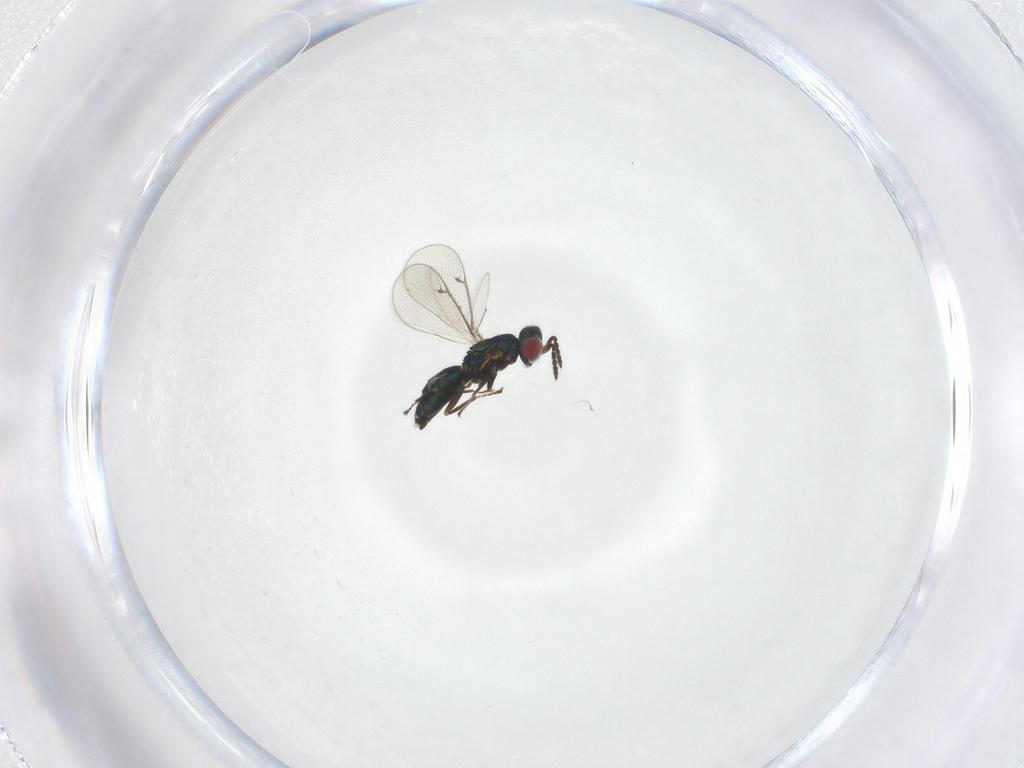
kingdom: Animalia
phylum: Arthropoda
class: Insecta
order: Hymenoptera
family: Eulophidae
